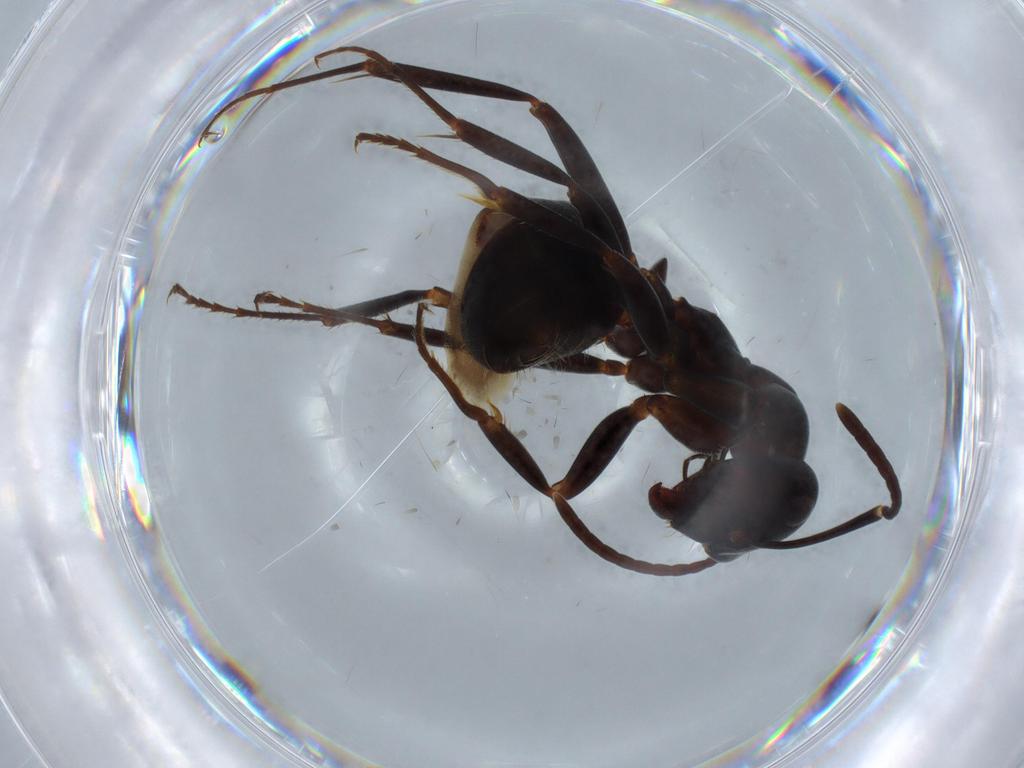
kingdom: Animalia
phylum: Arthropoda
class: Insecta
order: Hymenoptera
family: Formicidae
